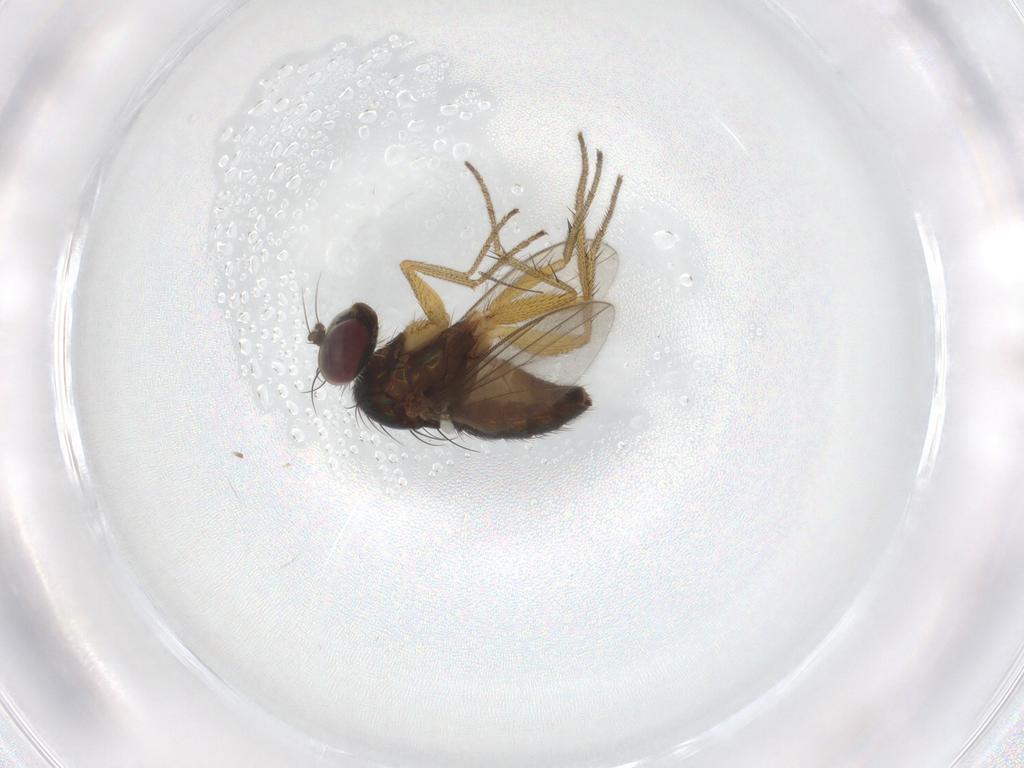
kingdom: Animalia
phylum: Arthropoda
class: Insecta
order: Diptera
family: Dolichopodidae
